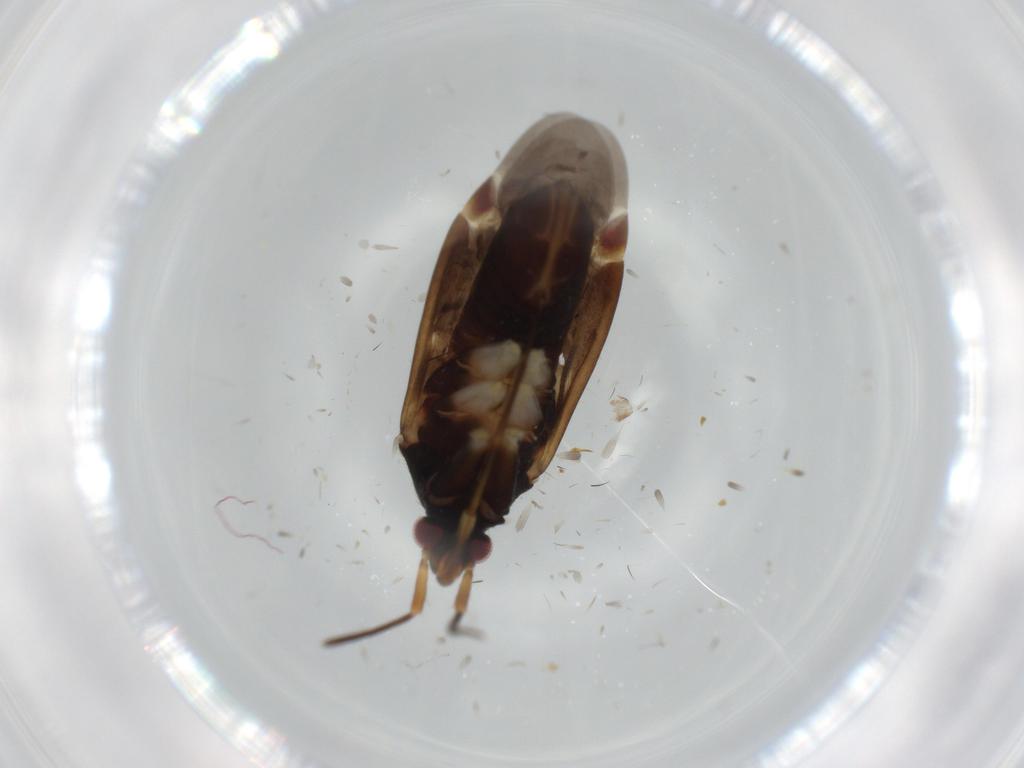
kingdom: Animalia
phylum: Arthropoda
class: Insecta
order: Hemiptera
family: Miridae
